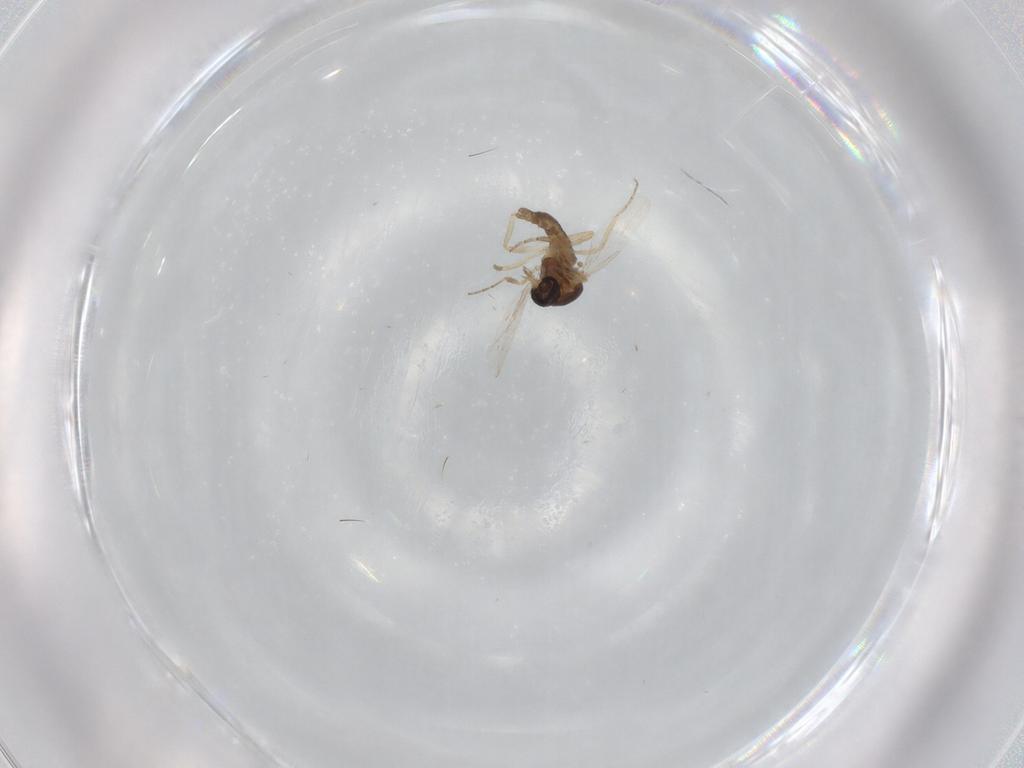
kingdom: Animalia
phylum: Arthropoda
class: Insecta
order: Diptera
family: Ceratopogonidae
